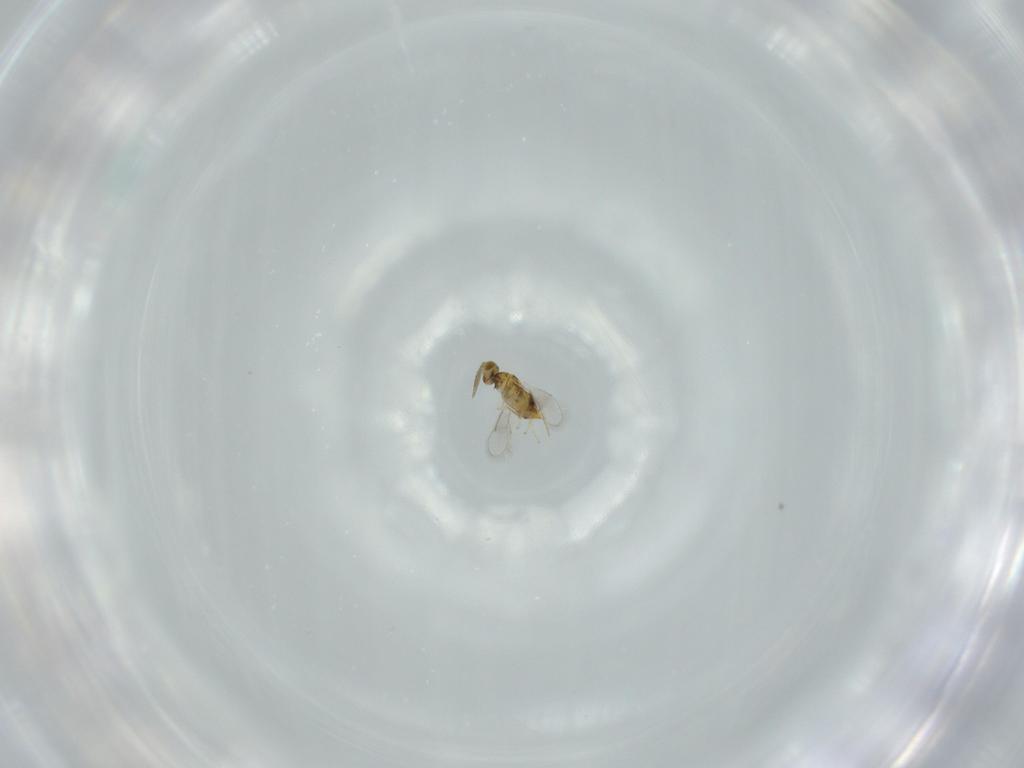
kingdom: Animalia
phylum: Arthropoda
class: Insecta
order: Hymenoptera
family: Aphelinidae
